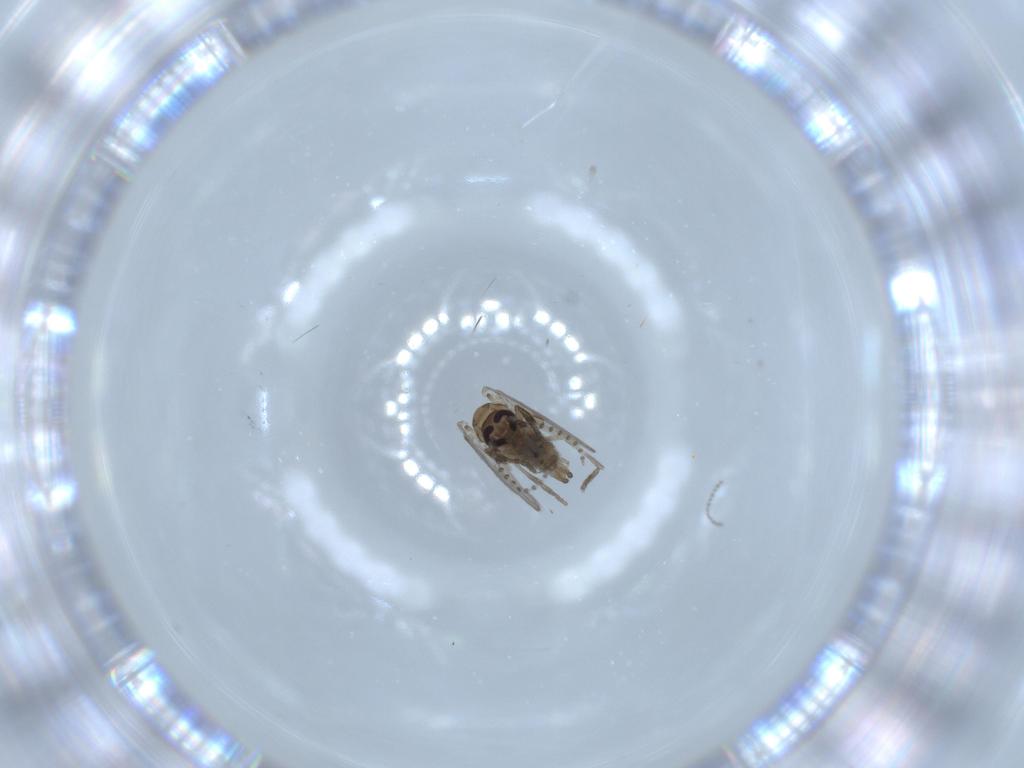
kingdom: Animalia
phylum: Arthropoda
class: Insecta
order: Diptera
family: Psychodidae
